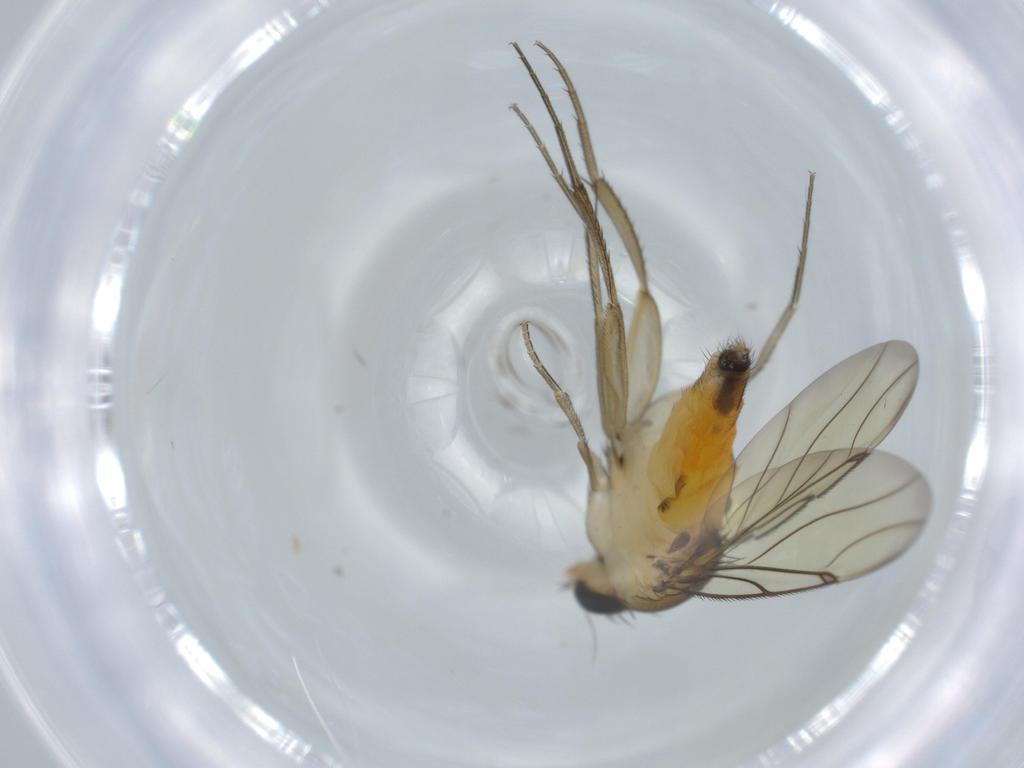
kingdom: Animalia
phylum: Arthropoda
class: Insecta
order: Diptera
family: Phoridae
